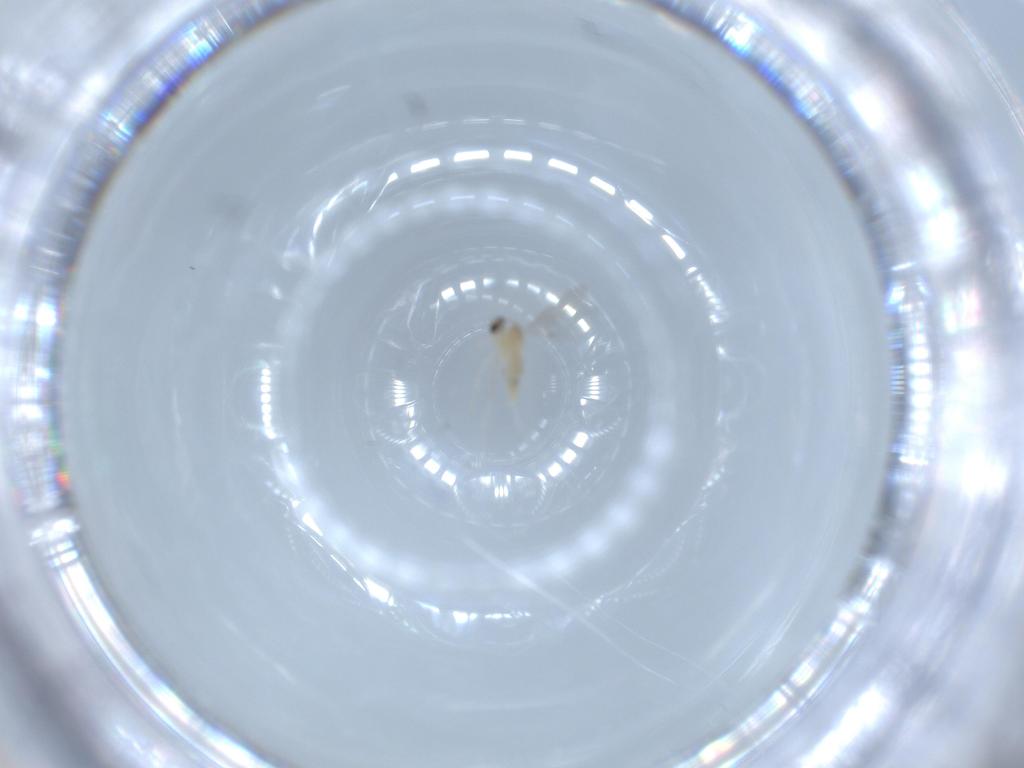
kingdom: Animalia
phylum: Arthropoda
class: Insecta
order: Diptera
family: Cecidomyiidae
